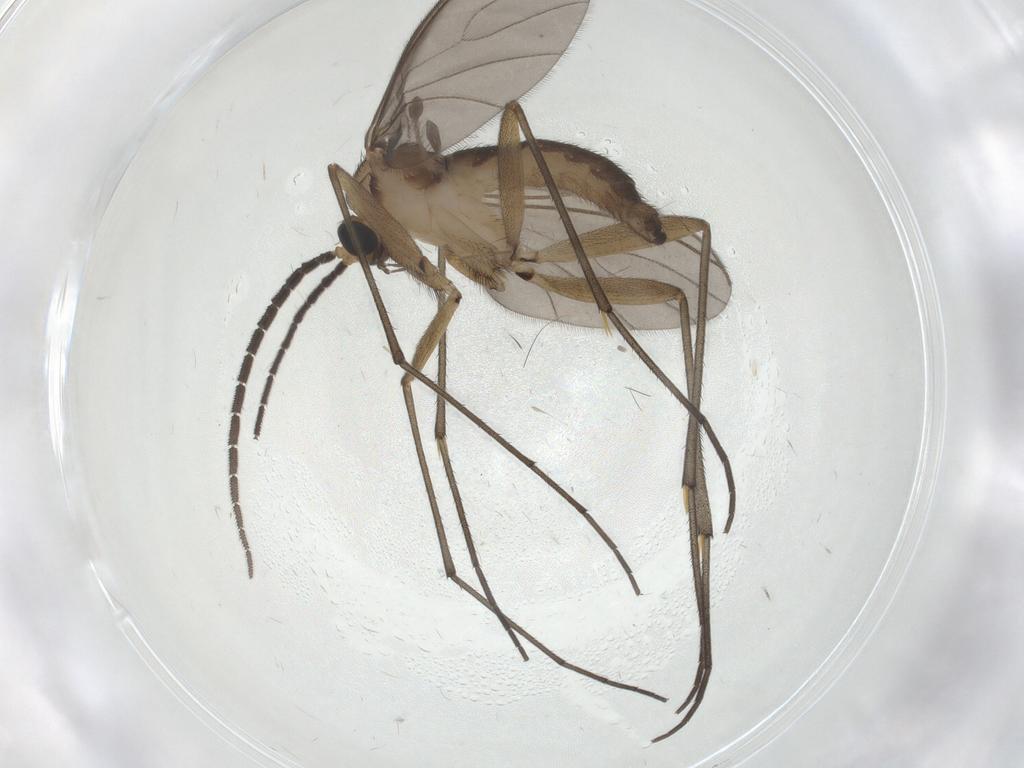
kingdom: Animalia
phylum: Arthropoda
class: Insecta
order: Diptera
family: Sciaridae
